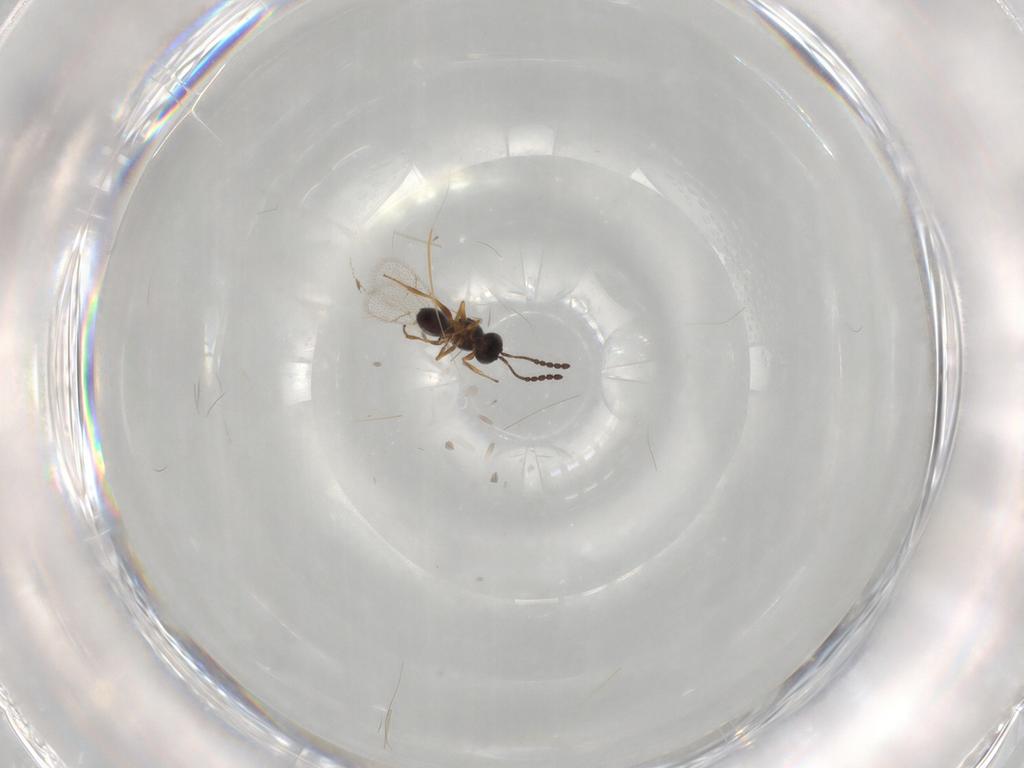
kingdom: Animalia
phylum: Arthropoda
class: Insecta
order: Hymenoptera
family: Figitidae
